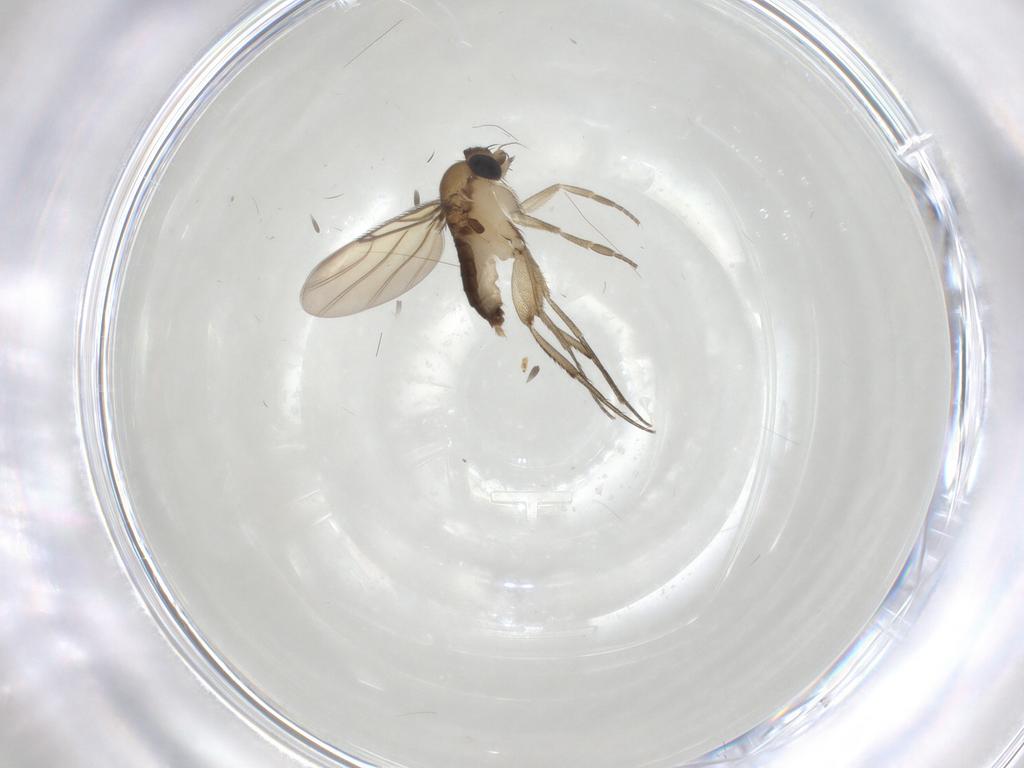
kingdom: Animalia
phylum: Arthropoda
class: Insecta
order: Diptera
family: Phoridae
